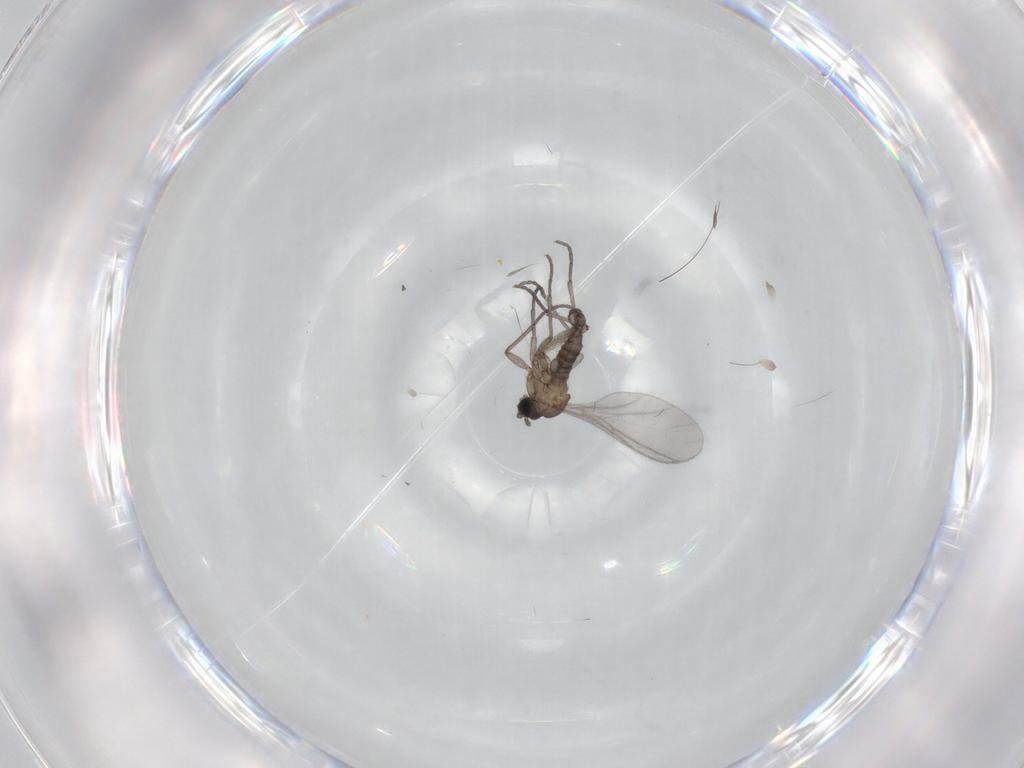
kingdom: Animalia
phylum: Arthropoda
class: Insecta
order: Diptera
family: Sciaridae
